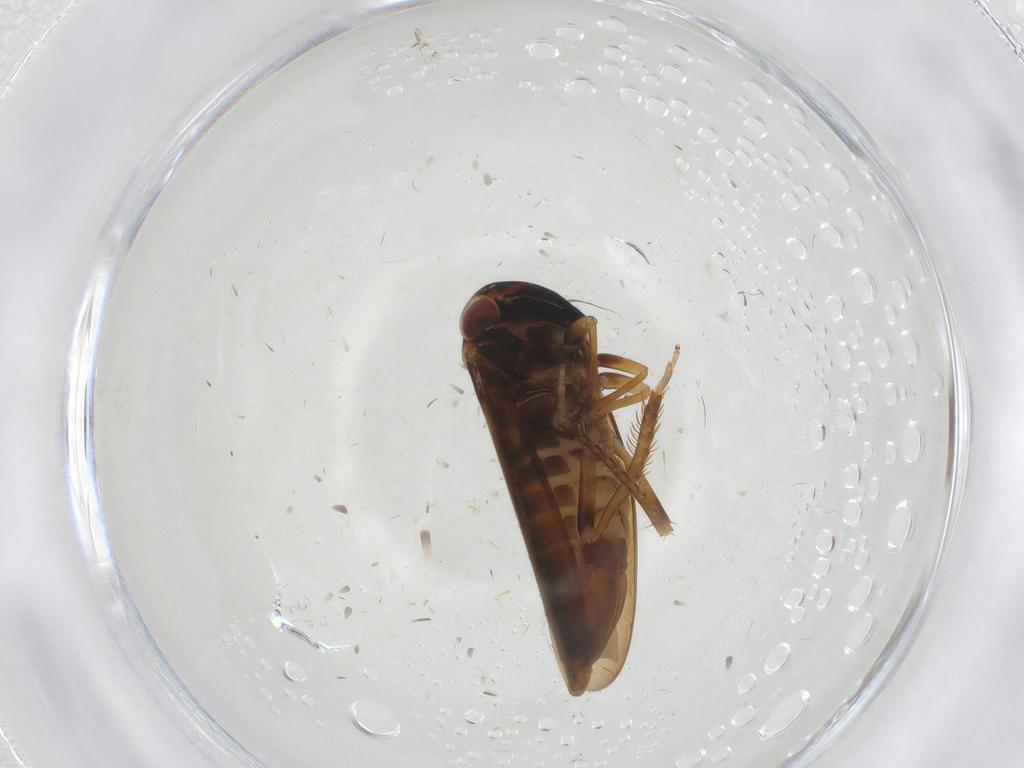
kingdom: Animalia
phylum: Arthropoda
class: Insecta
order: Hemiptera
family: Cicadellidae
